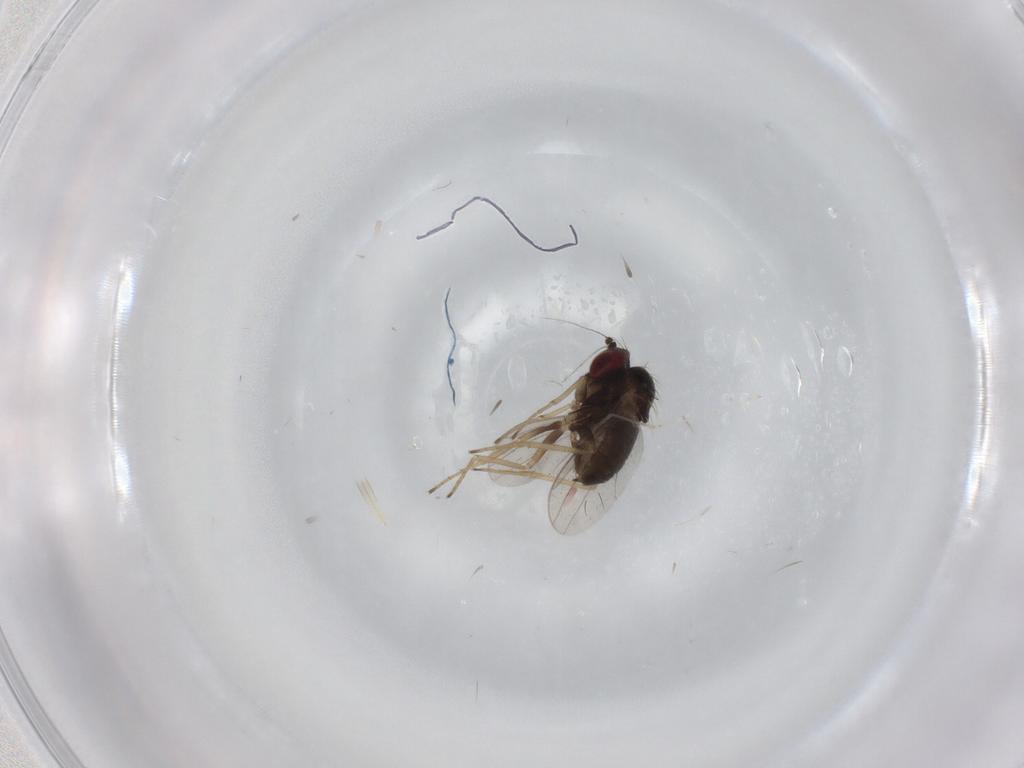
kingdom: Animalia
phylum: Arthropoda
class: Insecta
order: Diptera
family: Dolichopodidae
